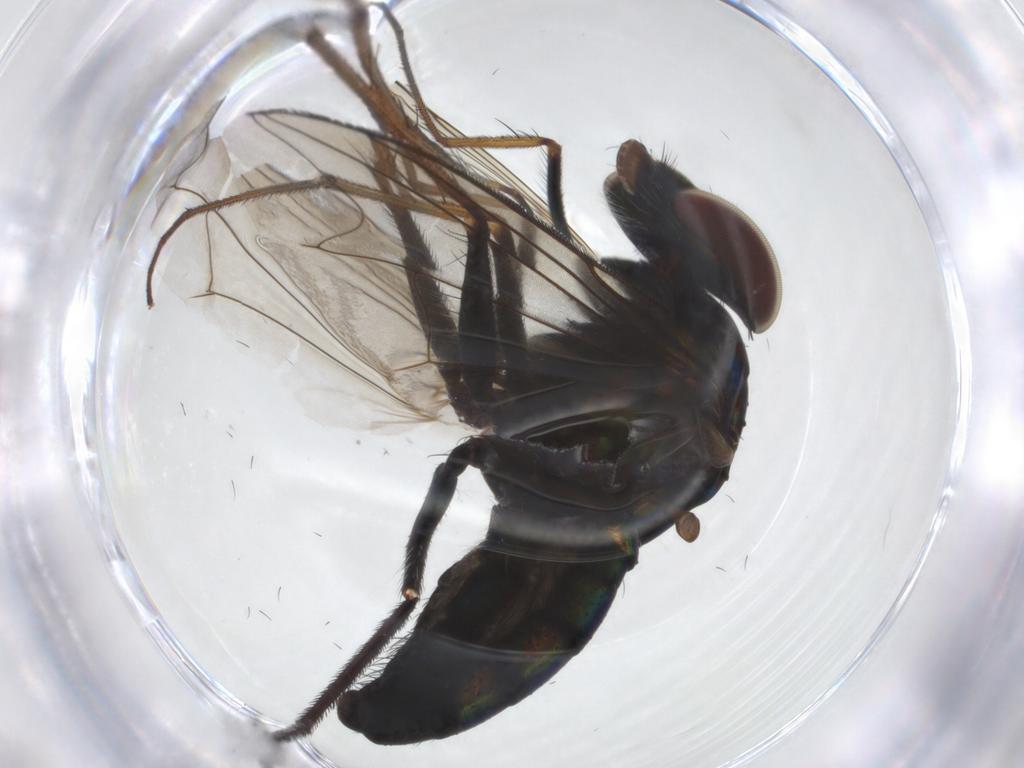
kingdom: Animalia
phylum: Arthropoda
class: Insecta
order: Diptera
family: Dolichopodidae
